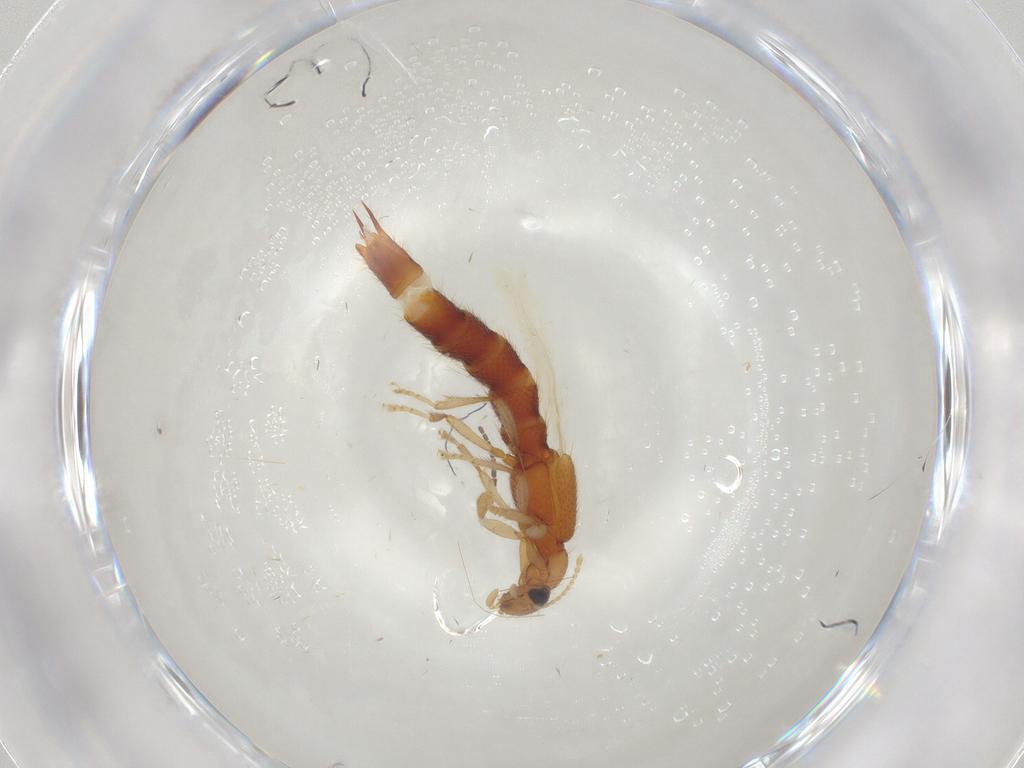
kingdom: Animalia
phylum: Arthropoda
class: Insecta
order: Coleoptera
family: Staphylinidae
